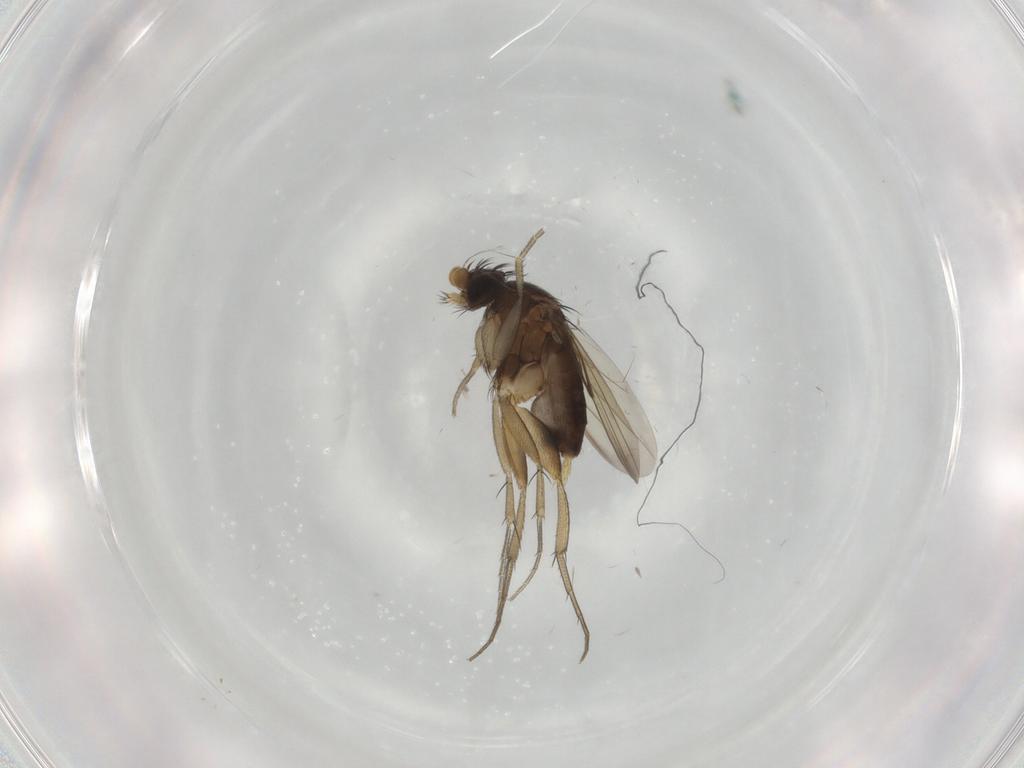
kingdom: Animalia
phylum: Arthropoda
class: Insecta
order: Diptera
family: Phoridae
